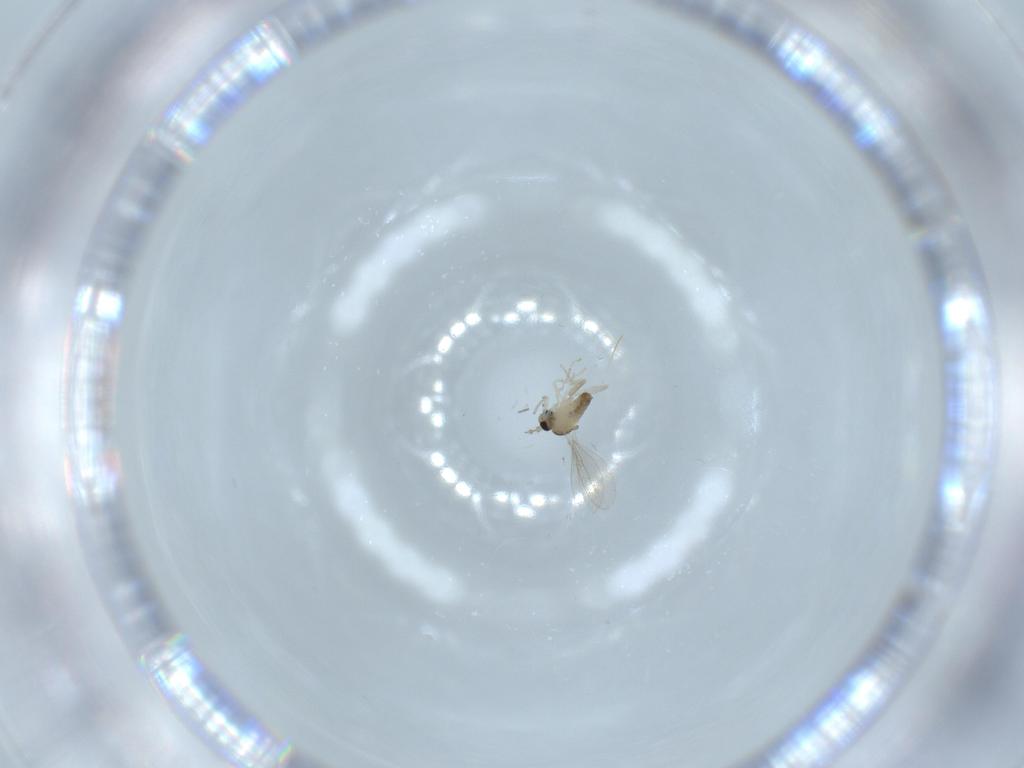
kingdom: Animalia
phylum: Arthropoda
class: Insecta
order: Diptera
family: Cecidomyiidae
